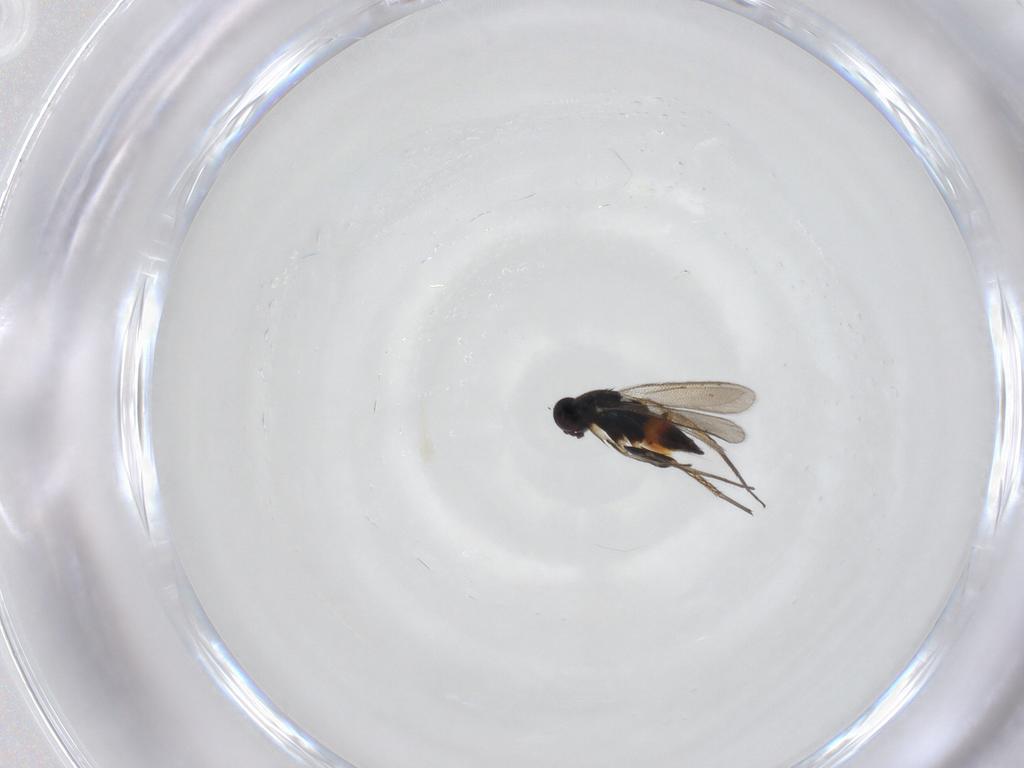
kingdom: Animalia
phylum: Arthropoda
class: Insecta
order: Hymenoptera
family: Eulophidae
